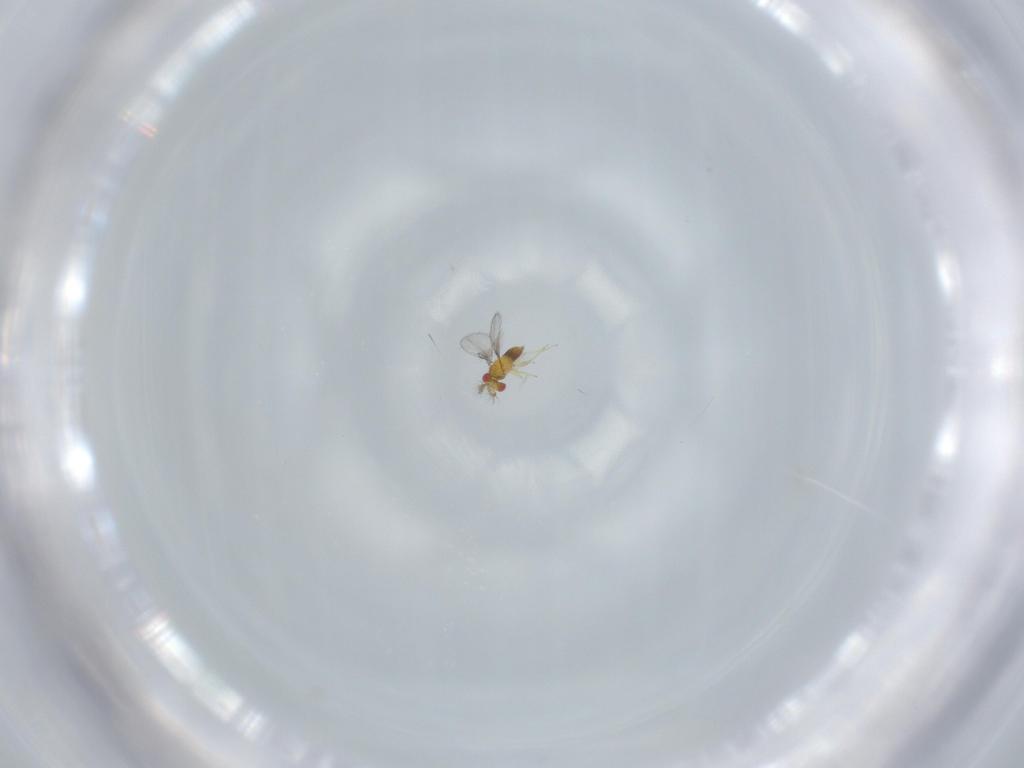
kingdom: Animalia
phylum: Arthropoda
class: Insecta
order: Hymenoptera
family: Trichogrammatidae
